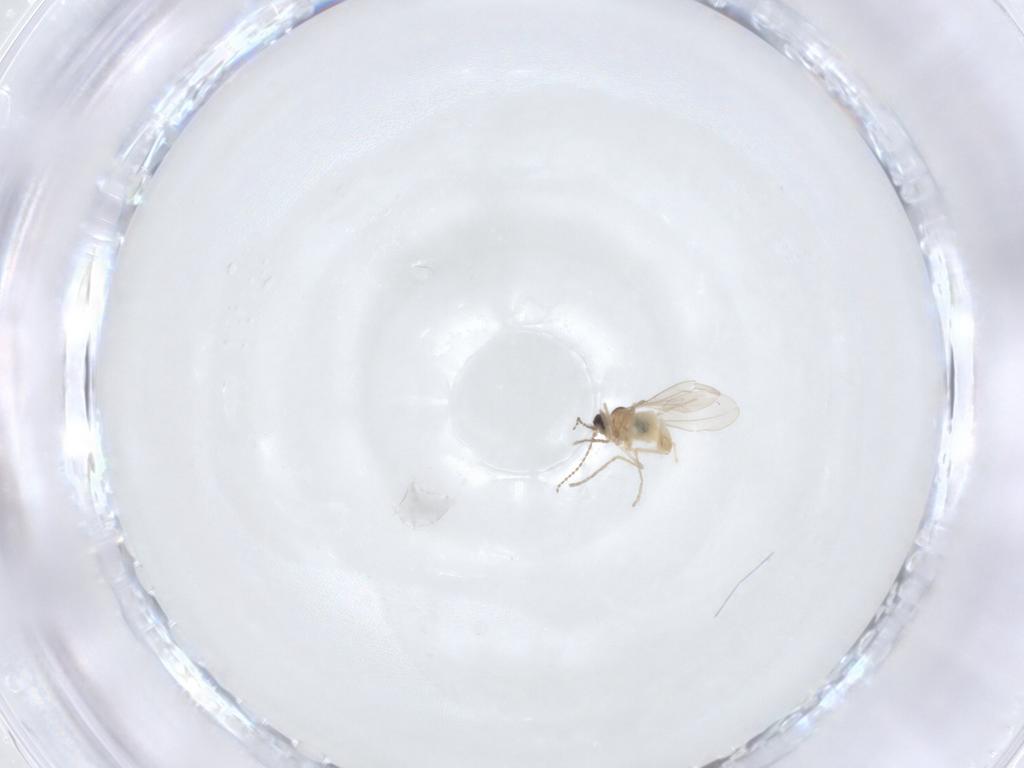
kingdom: Animalia
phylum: Arthropoda
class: Insecta
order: Diptera
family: Cecidomyiidae
